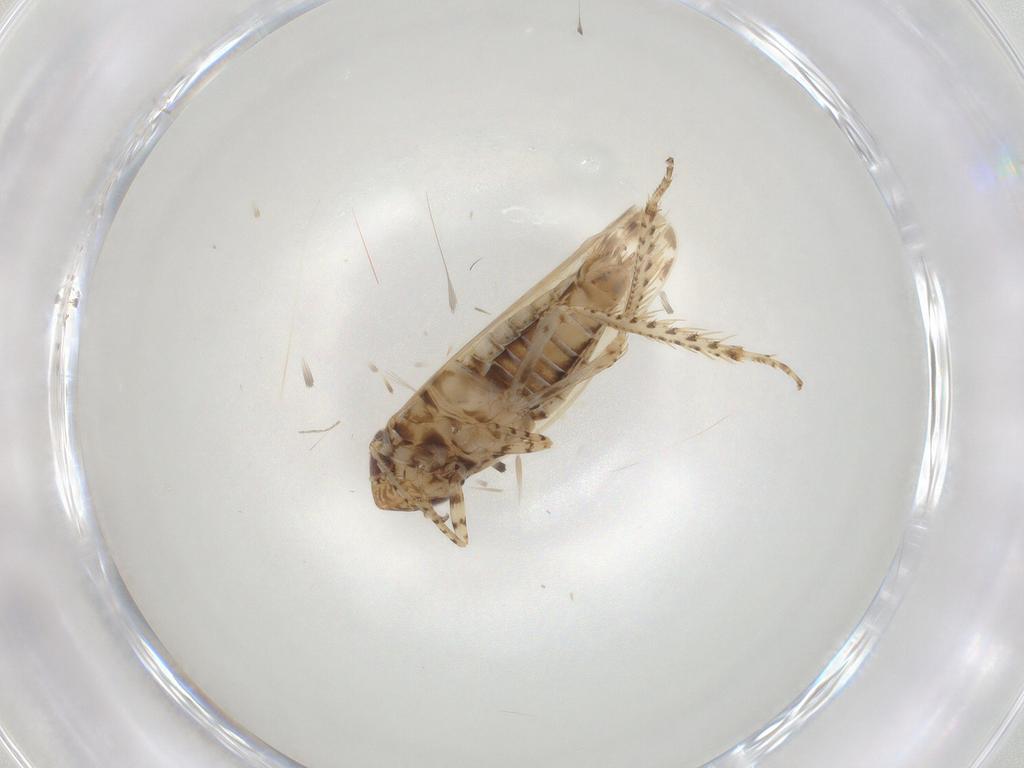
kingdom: Animalia
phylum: Arthropoda
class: Insecta
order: Hemiptera
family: Cicadellidae
